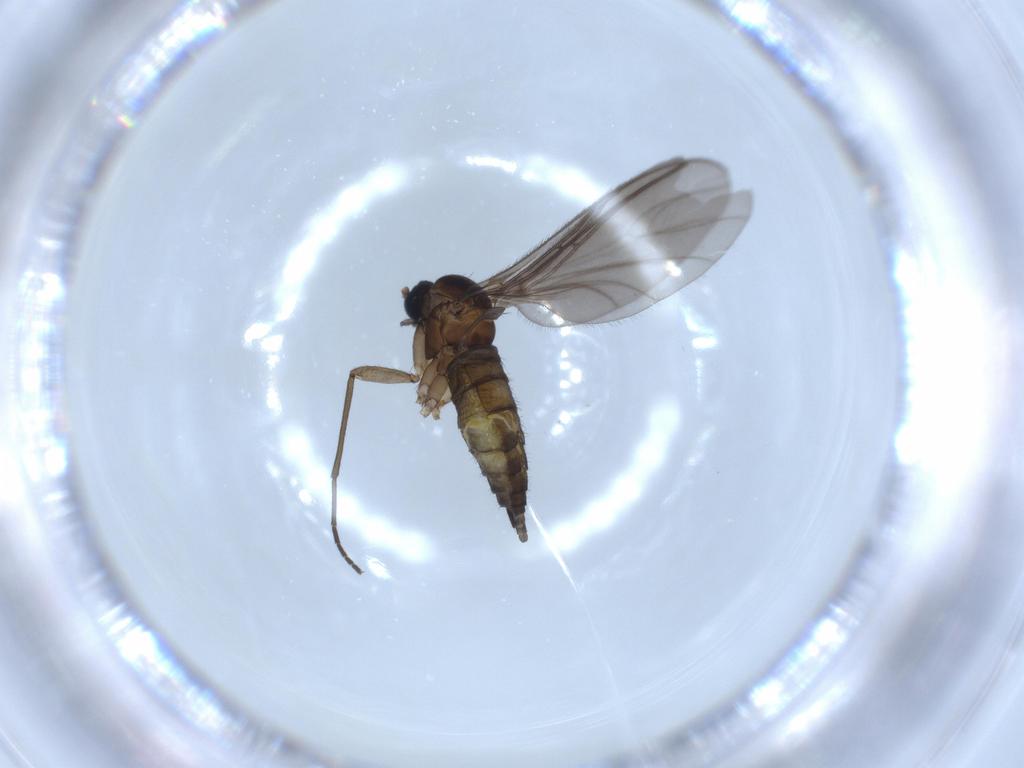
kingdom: Animalia
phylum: Arthropoda
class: Insecta
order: Diptera
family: Sciaridae
